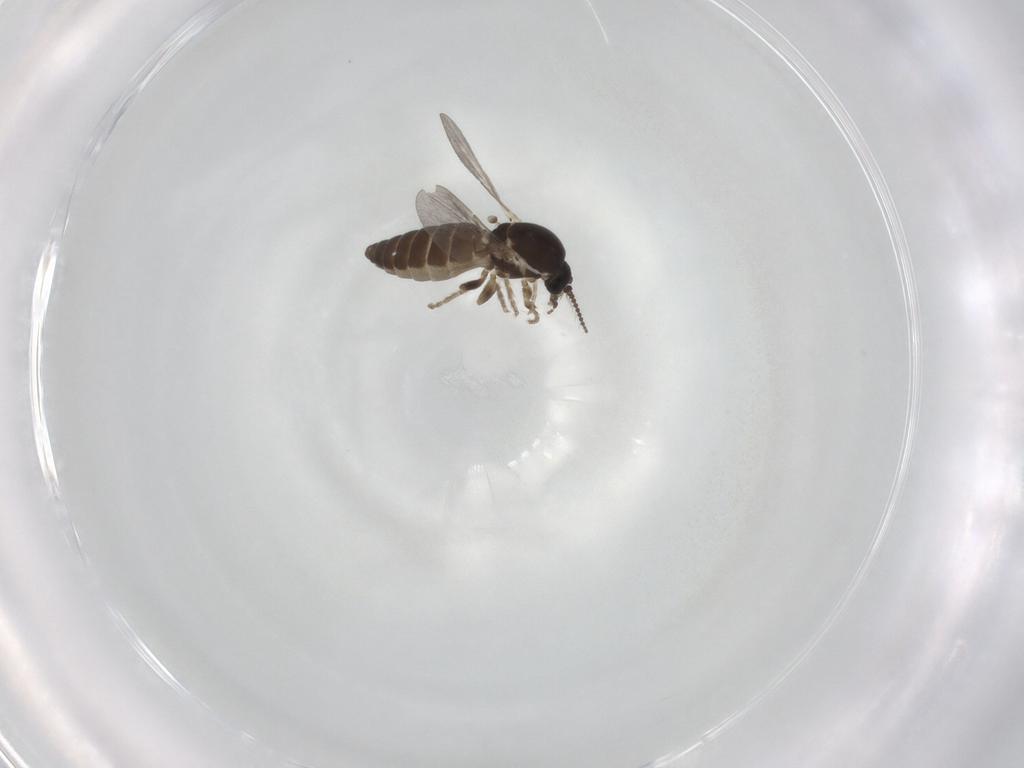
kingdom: Animalia
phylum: Arthropoda
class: Insecta
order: Diptera
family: Ceratopogonidae
